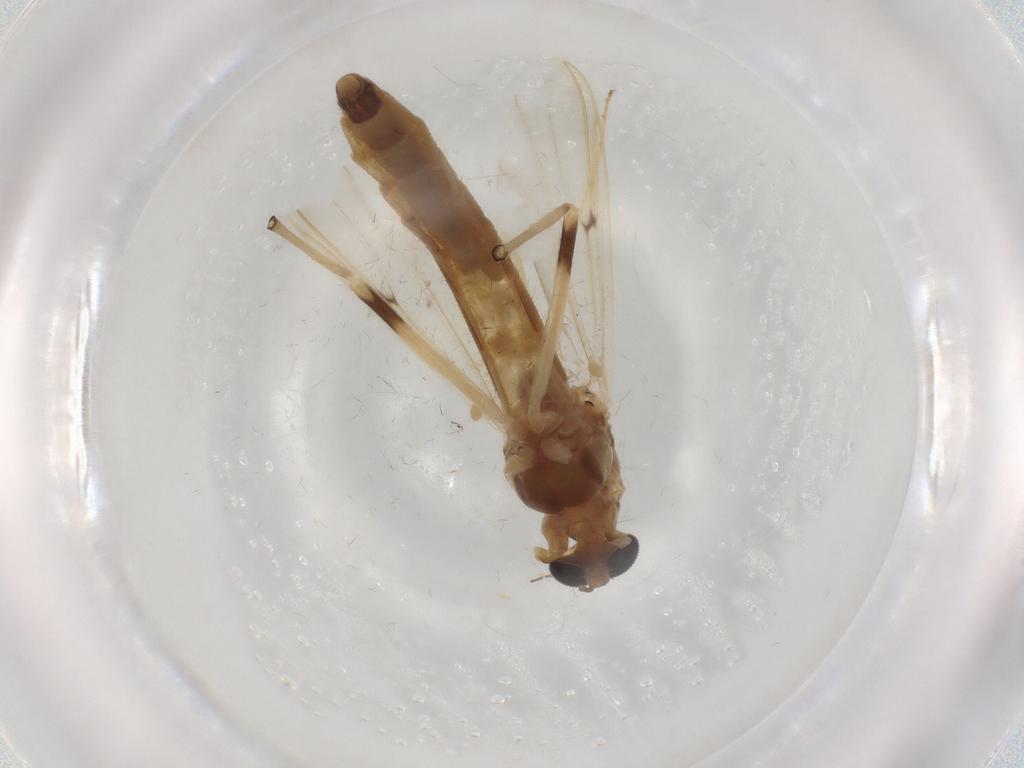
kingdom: Animalia
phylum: Arthropoda
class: Insecta
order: Diptera
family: Chironomidae
